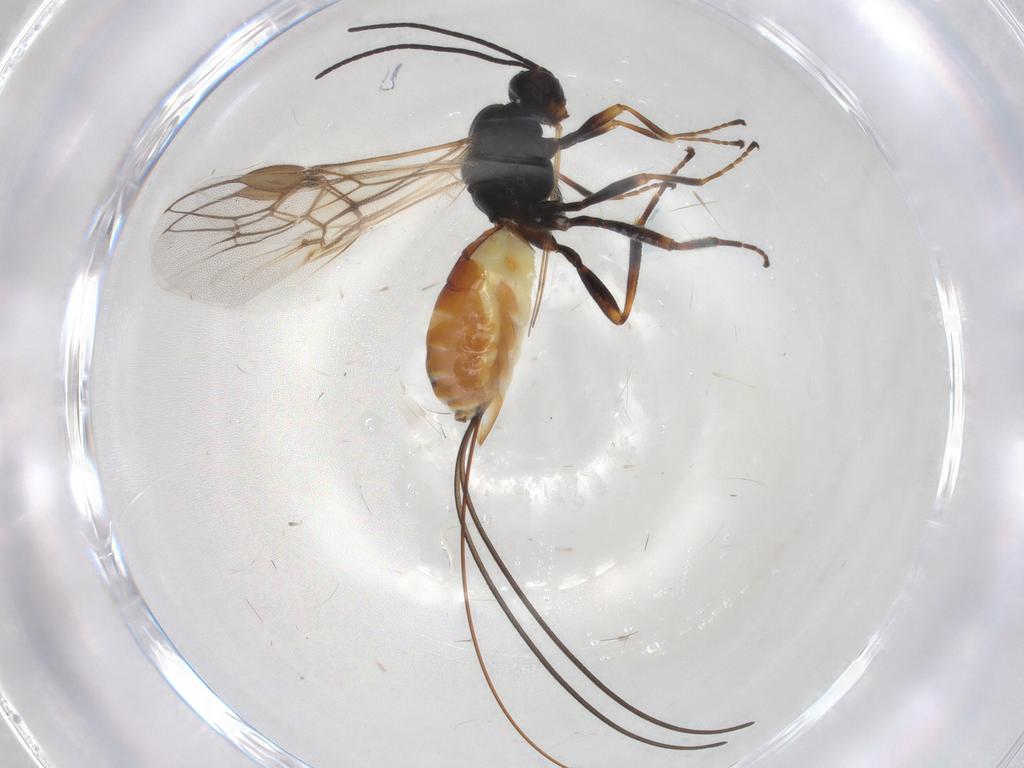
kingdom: Animalia
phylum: Arthropoda
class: Insecta
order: Hymenoptera
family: Braconidae
